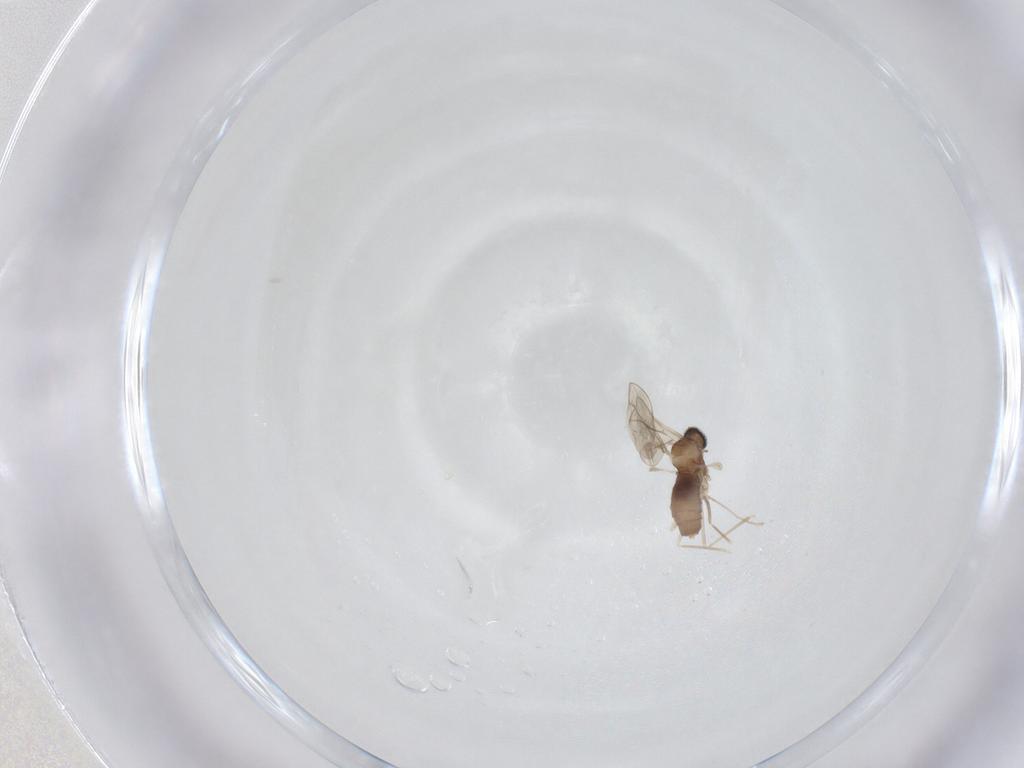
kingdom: Animalia
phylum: Arthropoda
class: Insecta
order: Diptera
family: Cecidomyiidae
